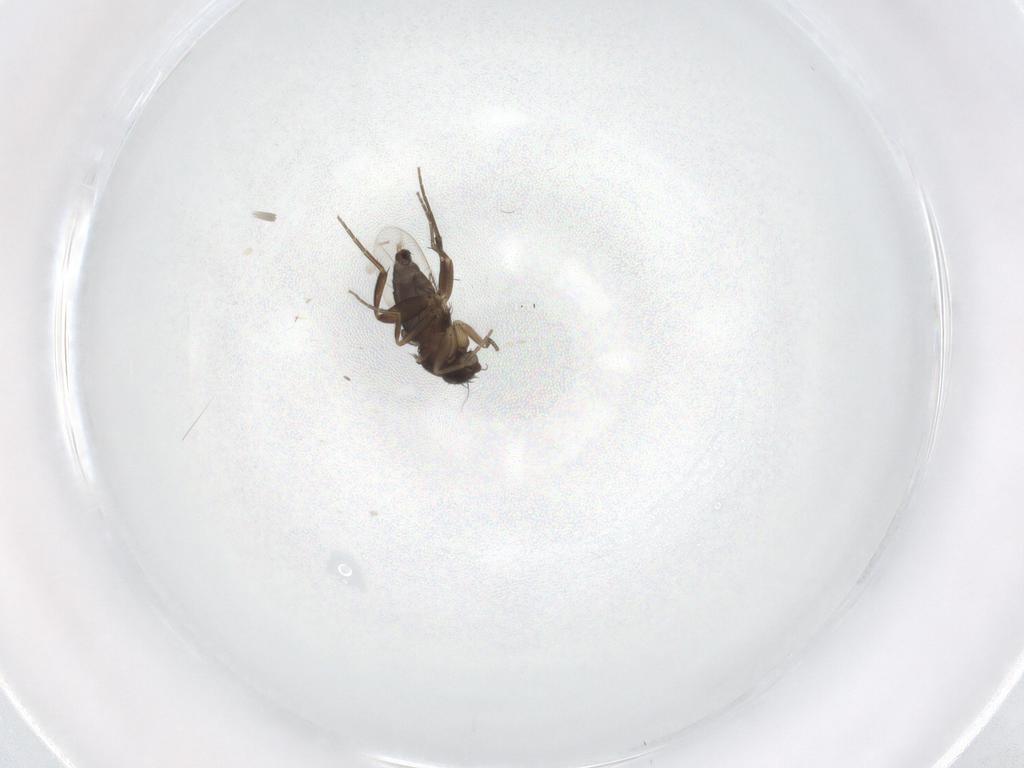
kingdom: Animalia
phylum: Arthropoda
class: Insecta
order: Diptera
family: Phoridae
